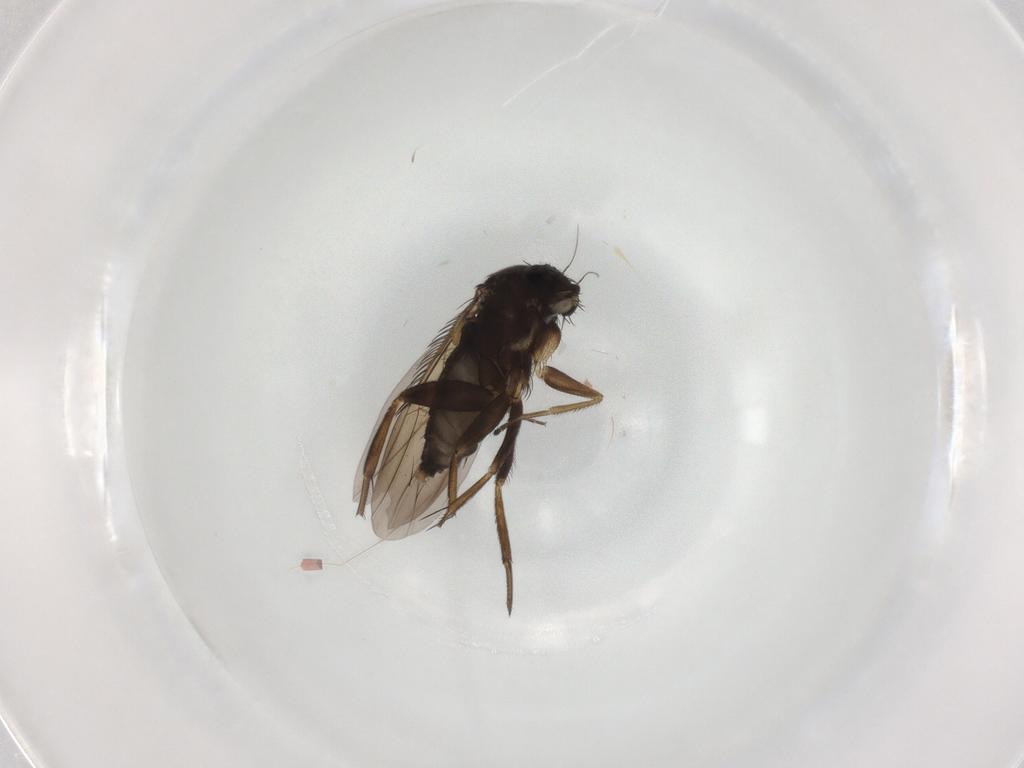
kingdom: Animalia
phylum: Arthropoda
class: Insecta
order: Diptera
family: Phoridae
